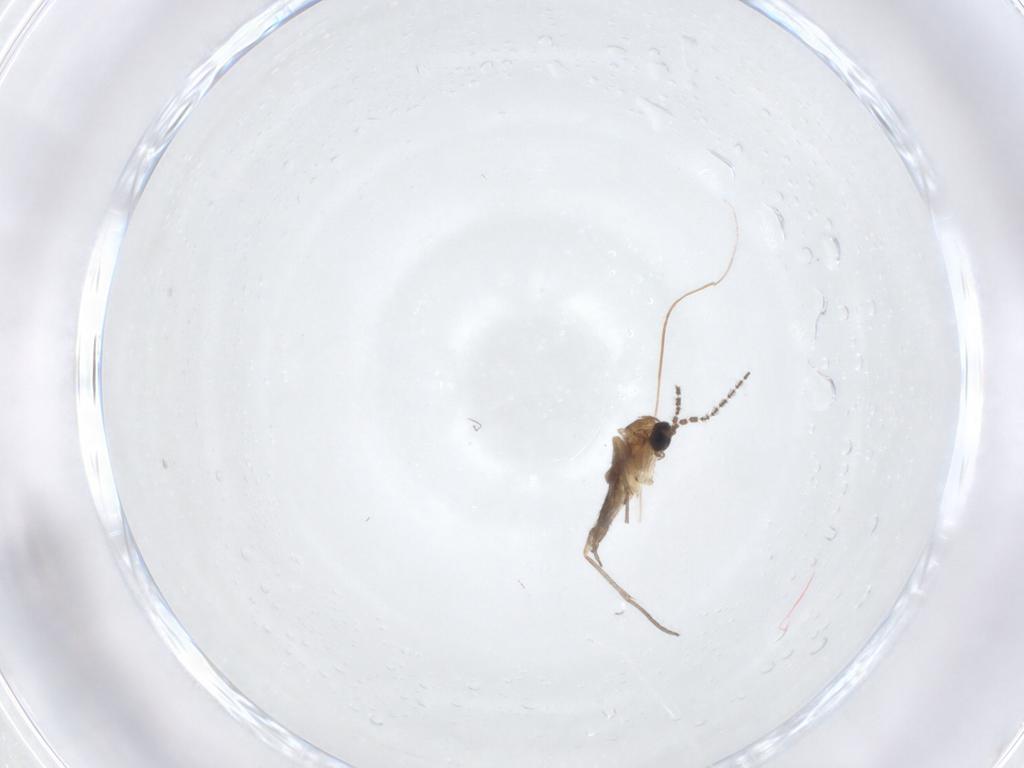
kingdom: Animalia
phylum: Arthropoda
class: Insecta
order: Diptera
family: Sciaridae
